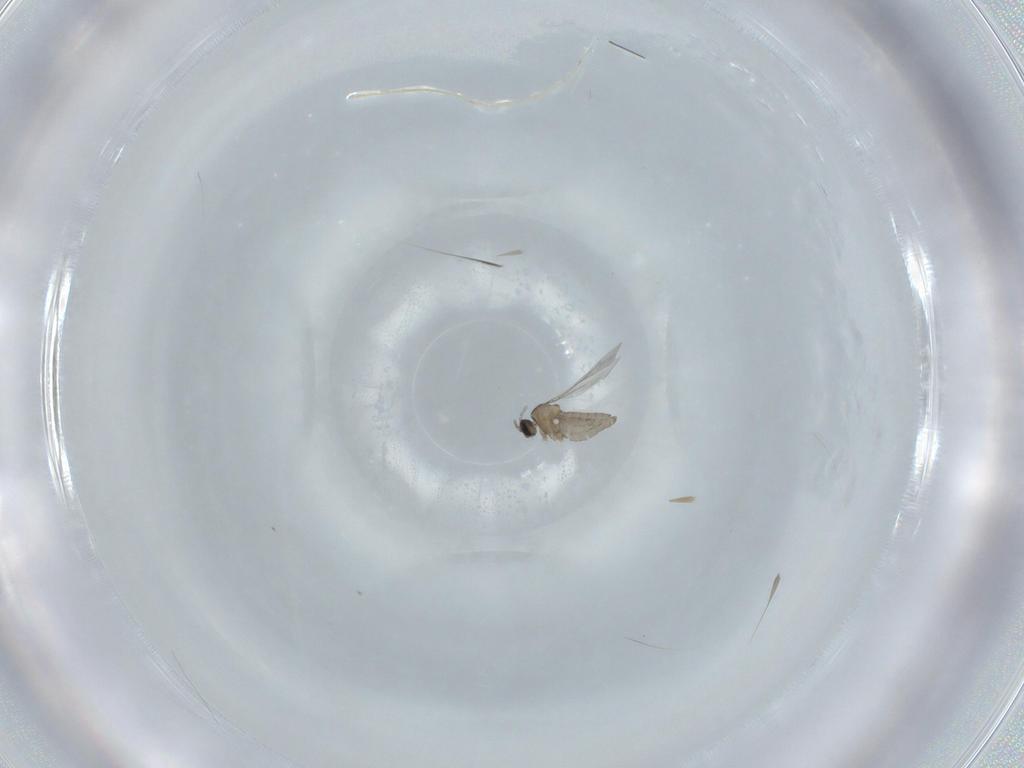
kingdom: Animalia
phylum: Arthropoda
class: Insecta
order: Diptera
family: Cecidomyiidae
